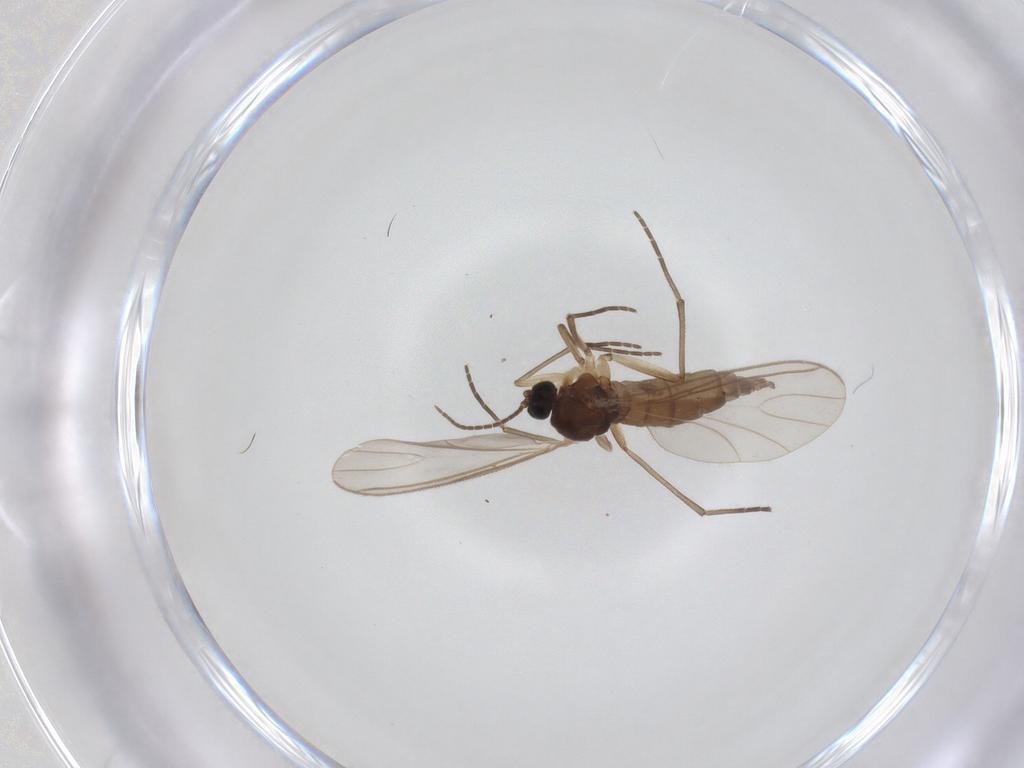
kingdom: Animalia
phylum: Arthropoda
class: Insecta
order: Diptera
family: Sciaridae
